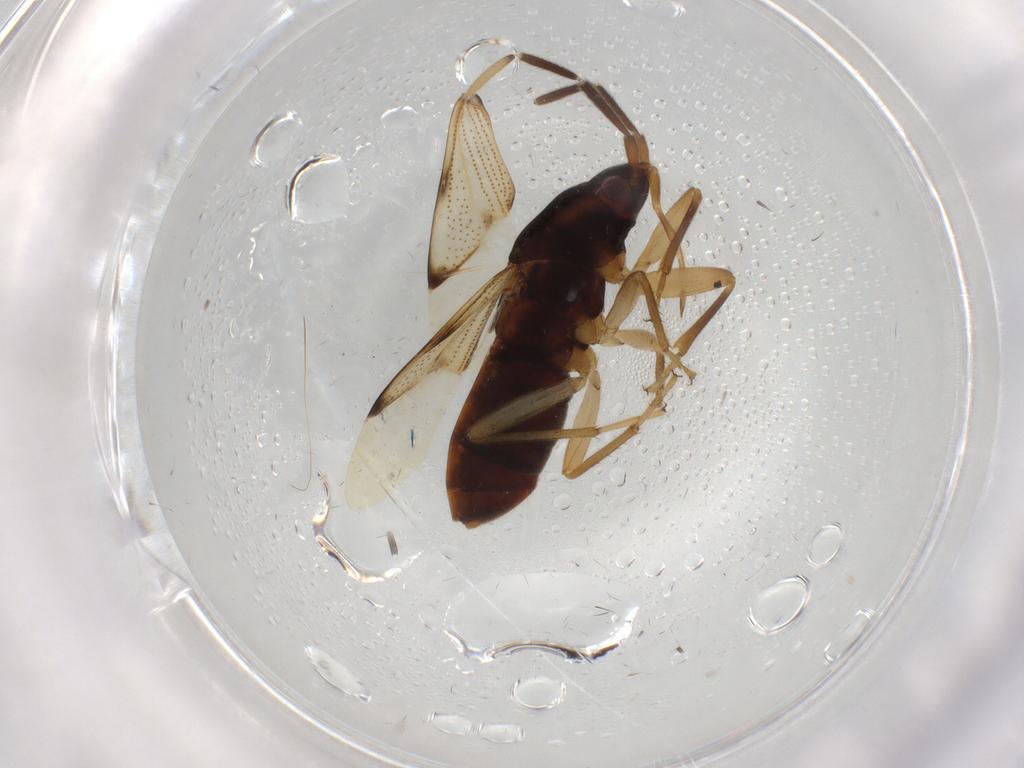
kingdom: Animalia
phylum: Arthropoda
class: Insecta
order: Hemiptera
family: Rhyparochromidae
